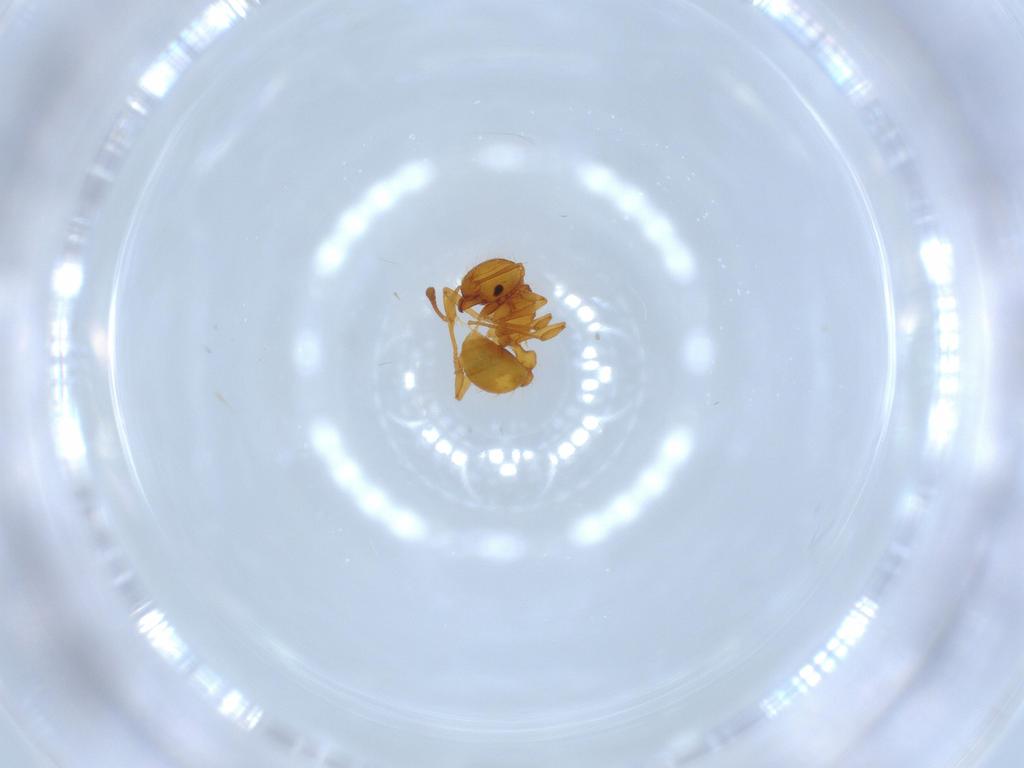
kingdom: Animalia
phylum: Arthropoda
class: Insecta
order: Hymenoptera
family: Formicidae
